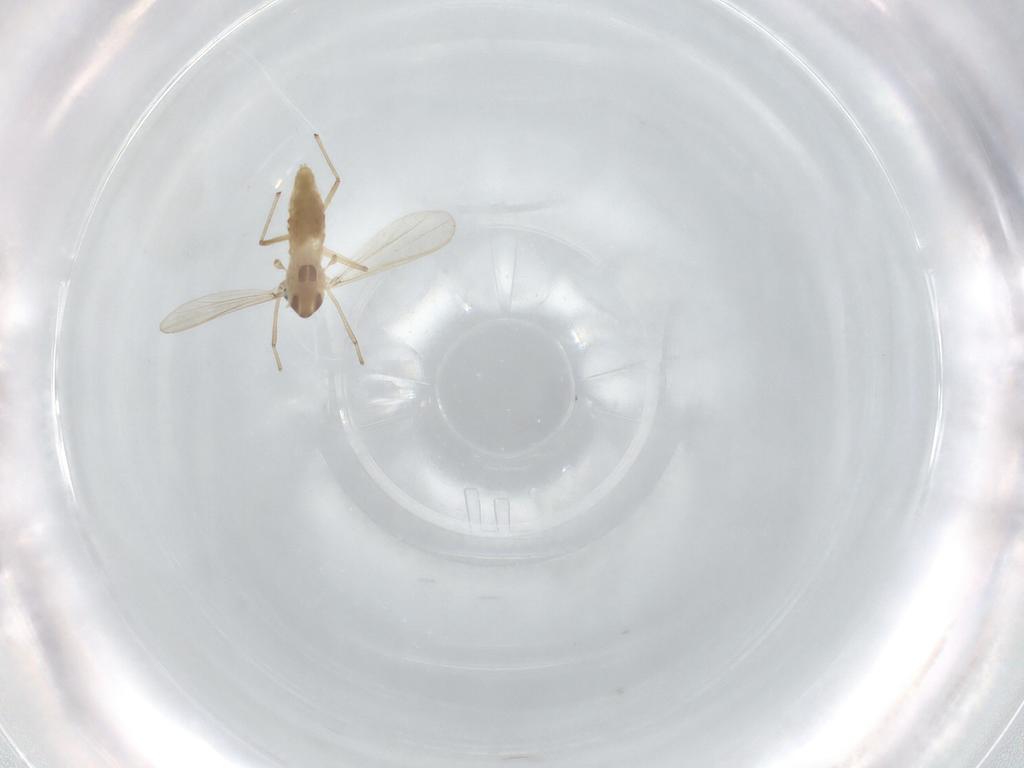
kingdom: Animalia
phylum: Arthropoda
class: Insecta
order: Diptera
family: Chironomidae
